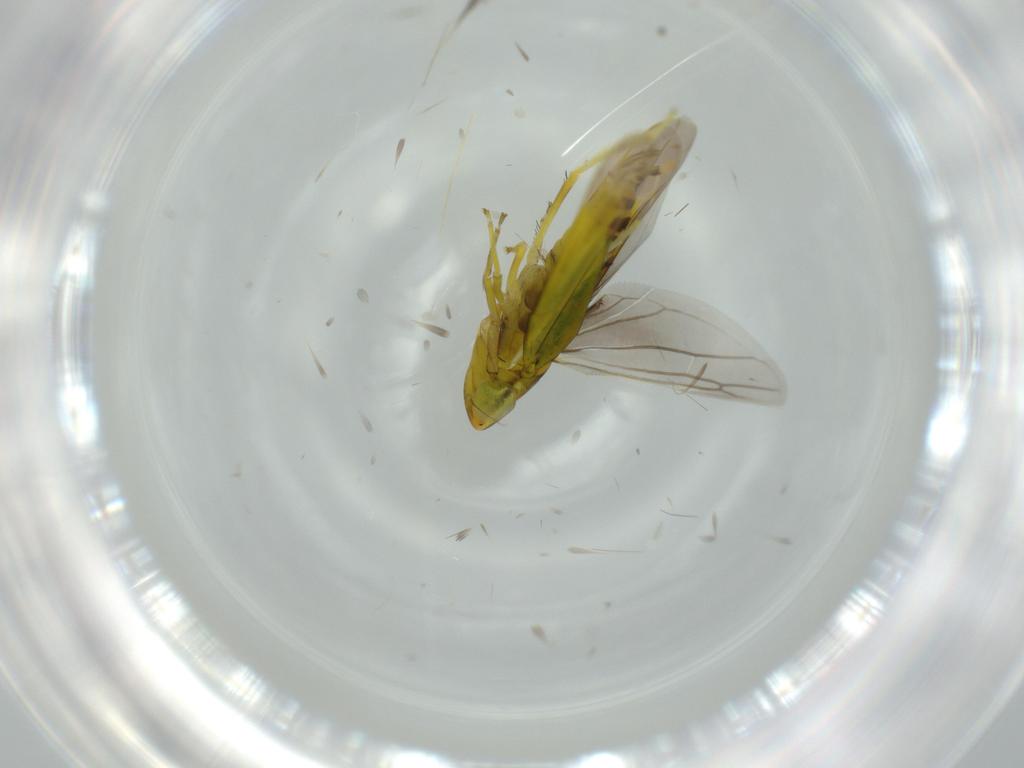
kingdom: Animalia
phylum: Arthropoda
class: Insecta
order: Hemiptera
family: Cicadellidae
